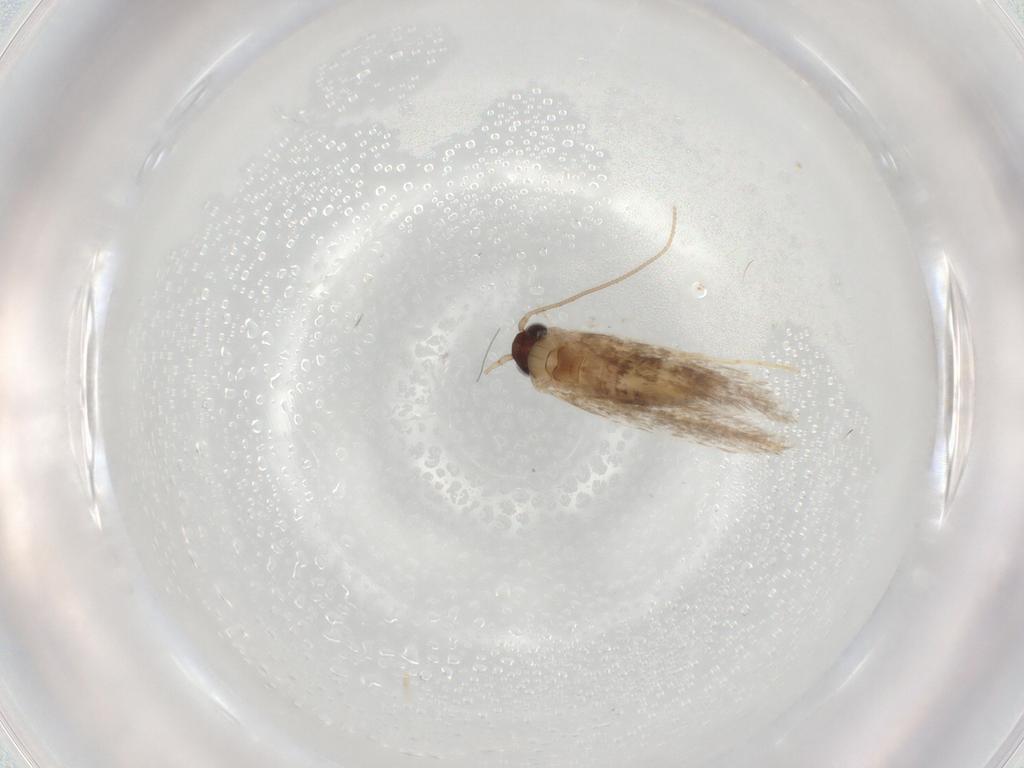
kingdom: Animalia
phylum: Arthropoda
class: Insecta
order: Lepidoptera
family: Tineidae
